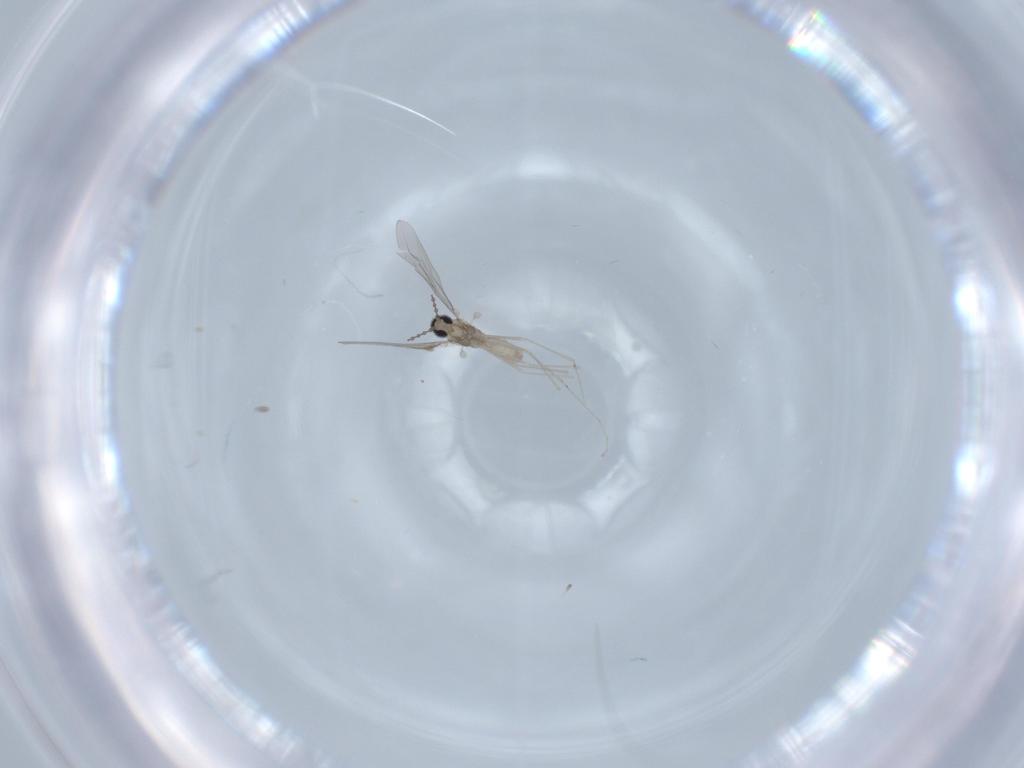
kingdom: Animalia
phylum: Arthropoda
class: Insecta
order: Diptera
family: Cecidomyiidae
